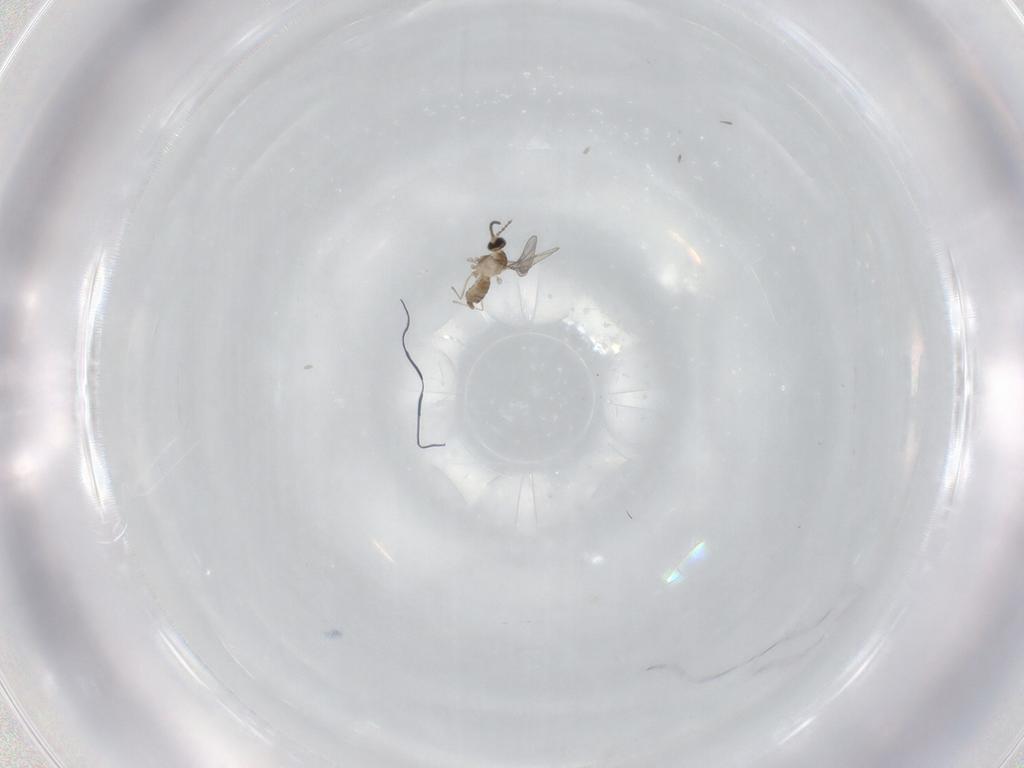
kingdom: Animalia
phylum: Arthropoda
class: Insecta
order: Diptera
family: Cecidomyiidae
